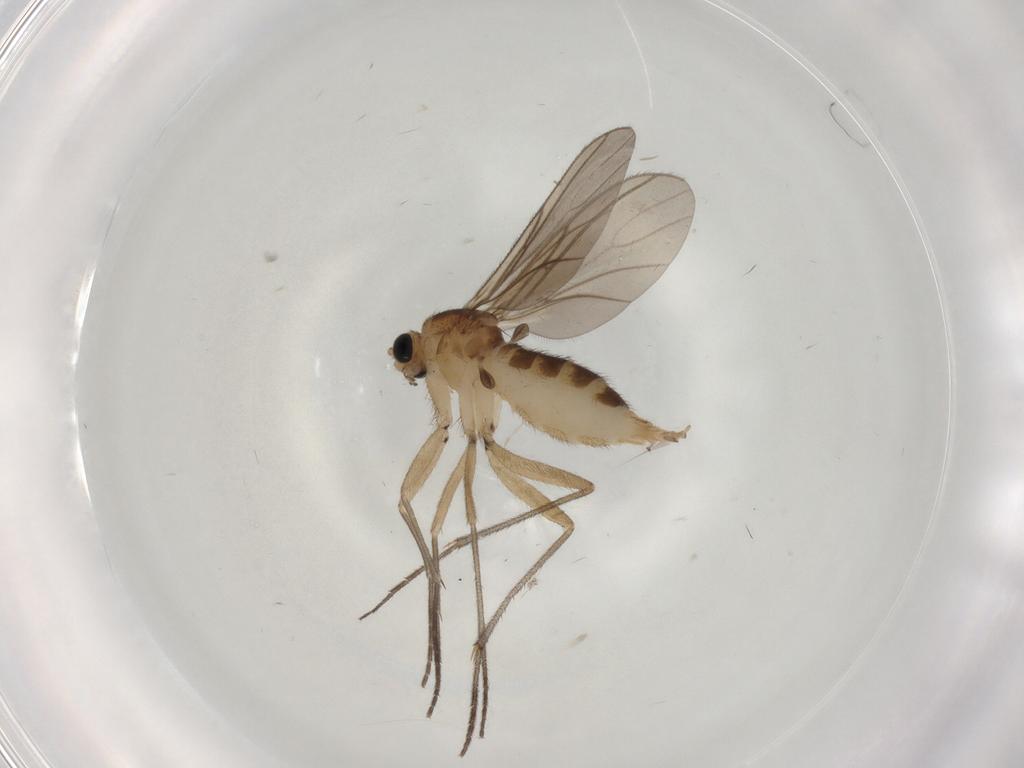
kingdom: Animalia
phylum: Arthropoda
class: Insecta
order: Diptera
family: Sciaridae
